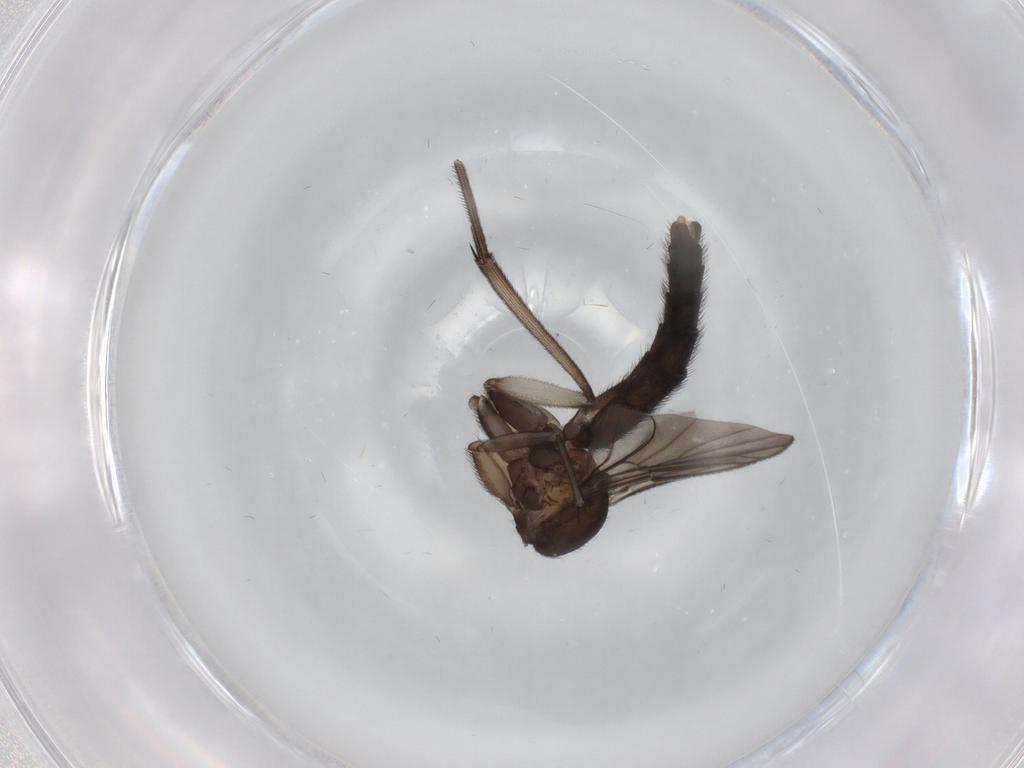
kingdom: Animalia
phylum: Arthropoda
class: Insecta
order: Diptera
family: Keroplatidae
